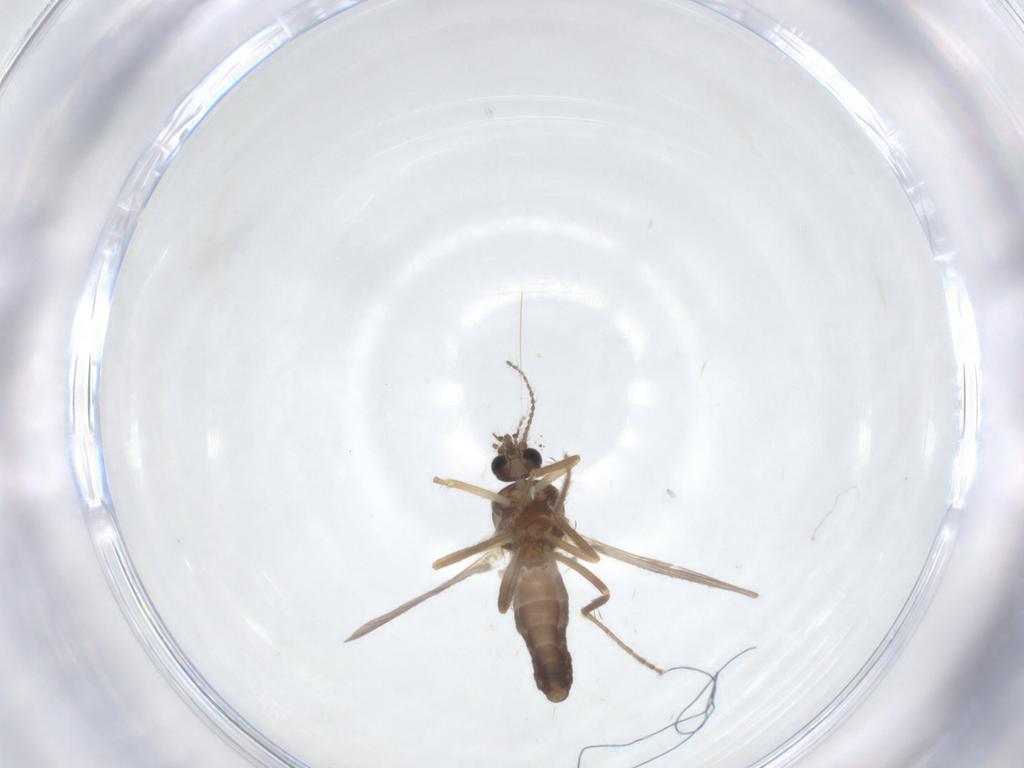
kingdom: Animalia
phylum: Arthropoda
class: Insecta
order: Diptera
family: Ceratopogonidae
